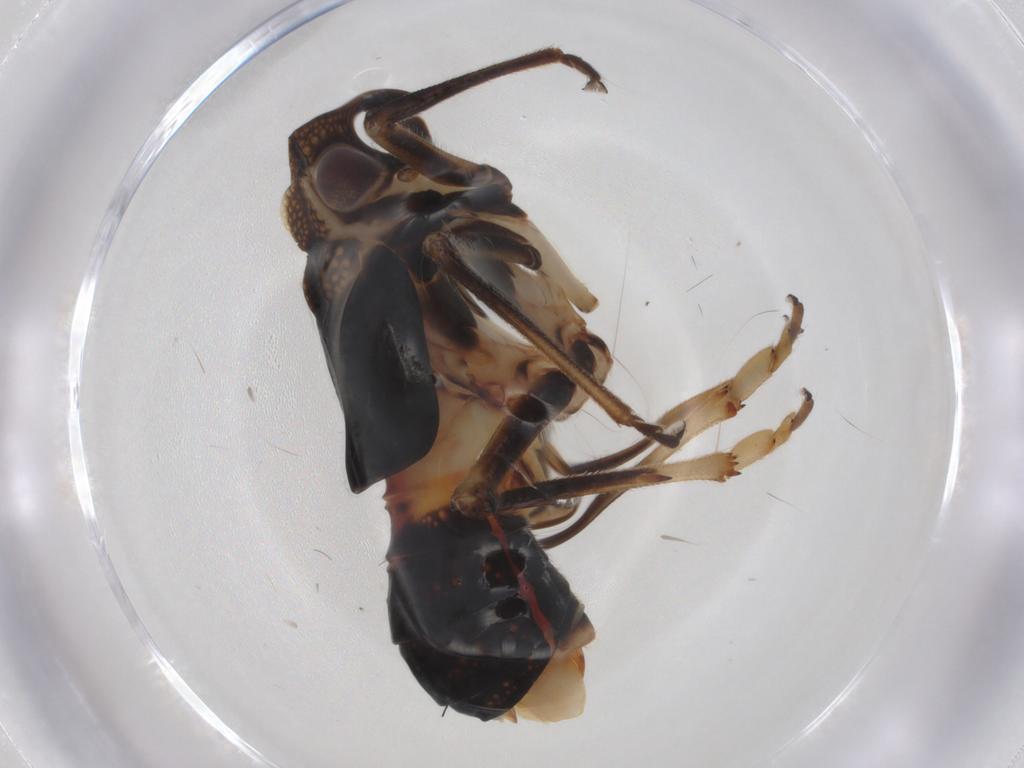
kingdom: Animalia
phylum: Arthropoda
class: Insecta
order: Hemiptera
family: Caliscelidae
